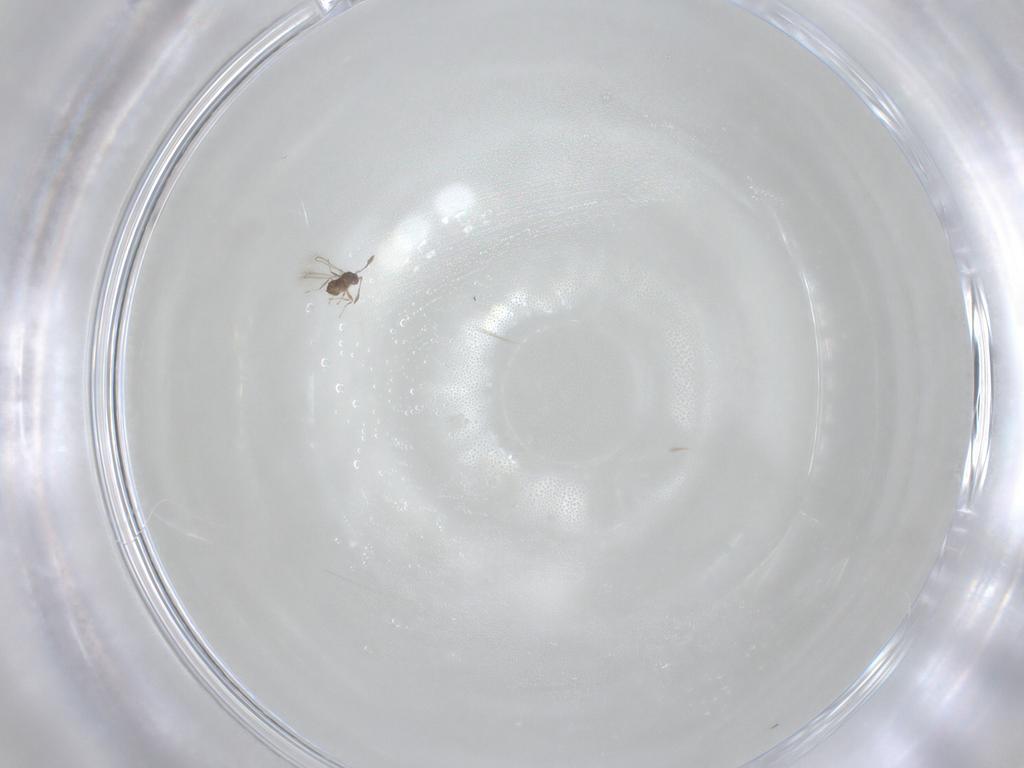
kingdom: Animalia
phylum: Arthropoda
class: Insecta
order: Hymenoptera
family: Mymaridae
